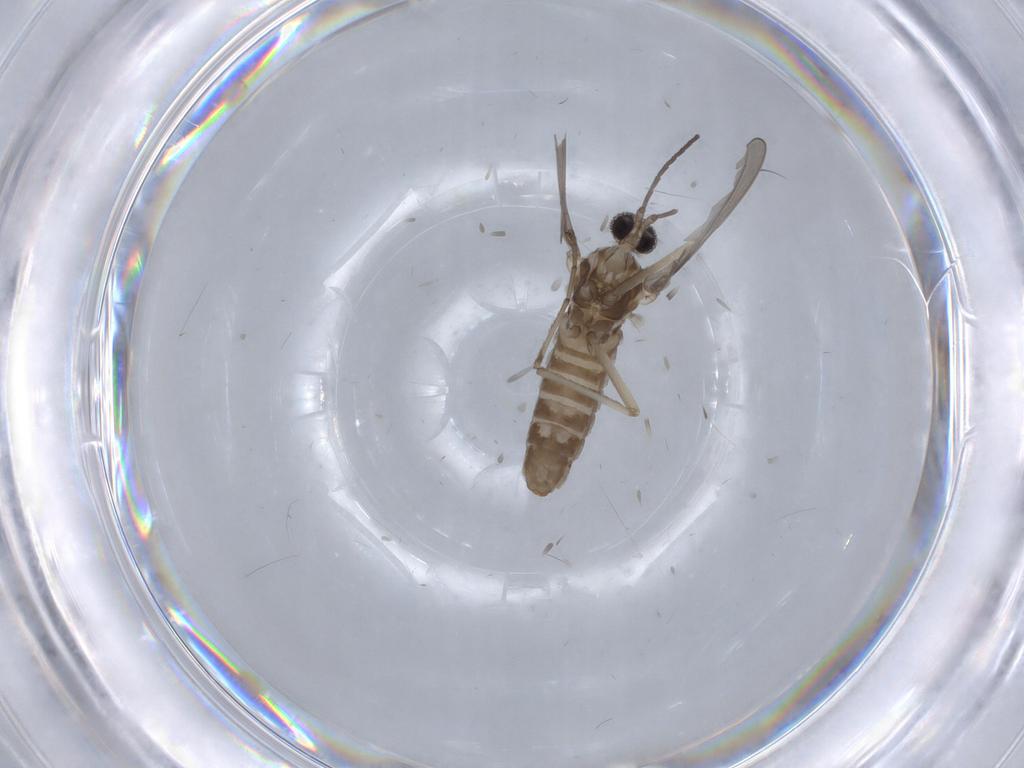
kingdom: Animalia
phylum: Arthropoda
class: Insecta
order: Diptera
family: Cecidomyiidae
